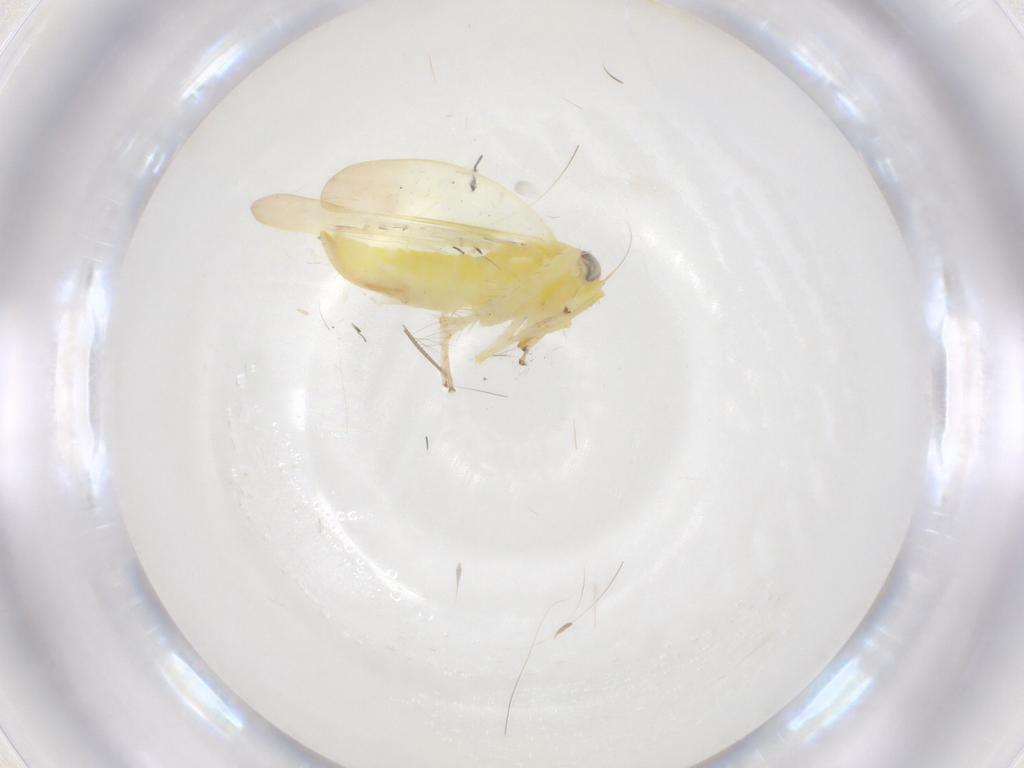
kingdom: Animalia
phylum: Arthropoda
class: Insecta
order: Hemiptera
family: Cicadellidae
